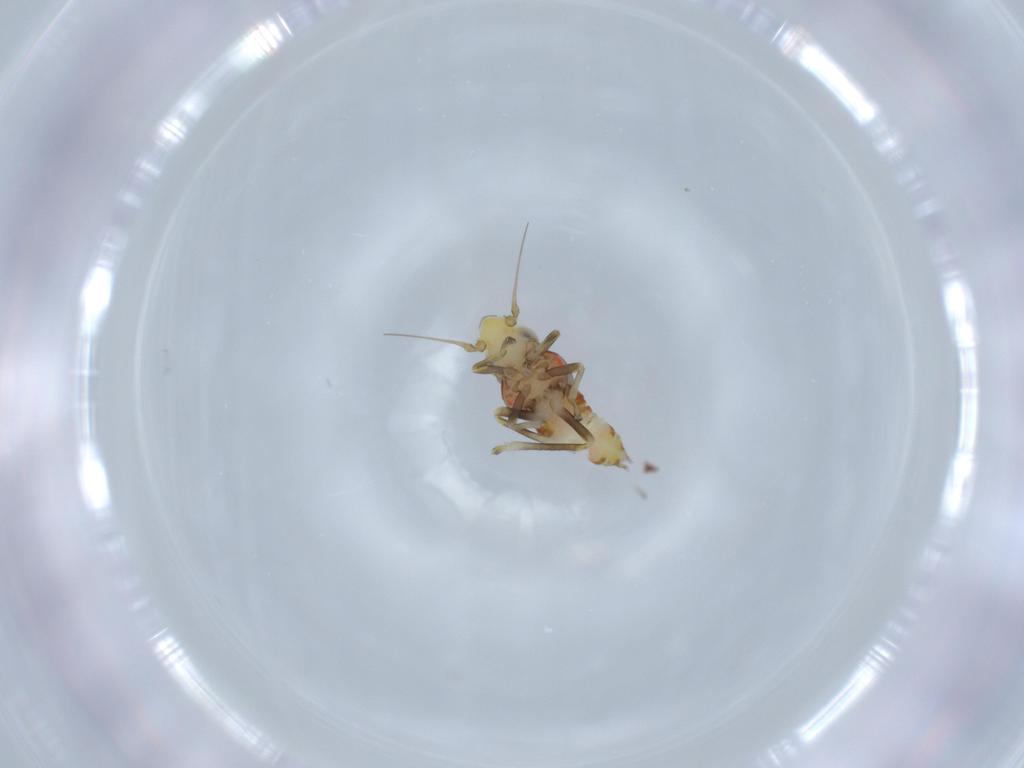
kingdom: Animalia
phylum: Arthropoda
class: Insecta
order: Hemiptera
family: Cicadellidae
